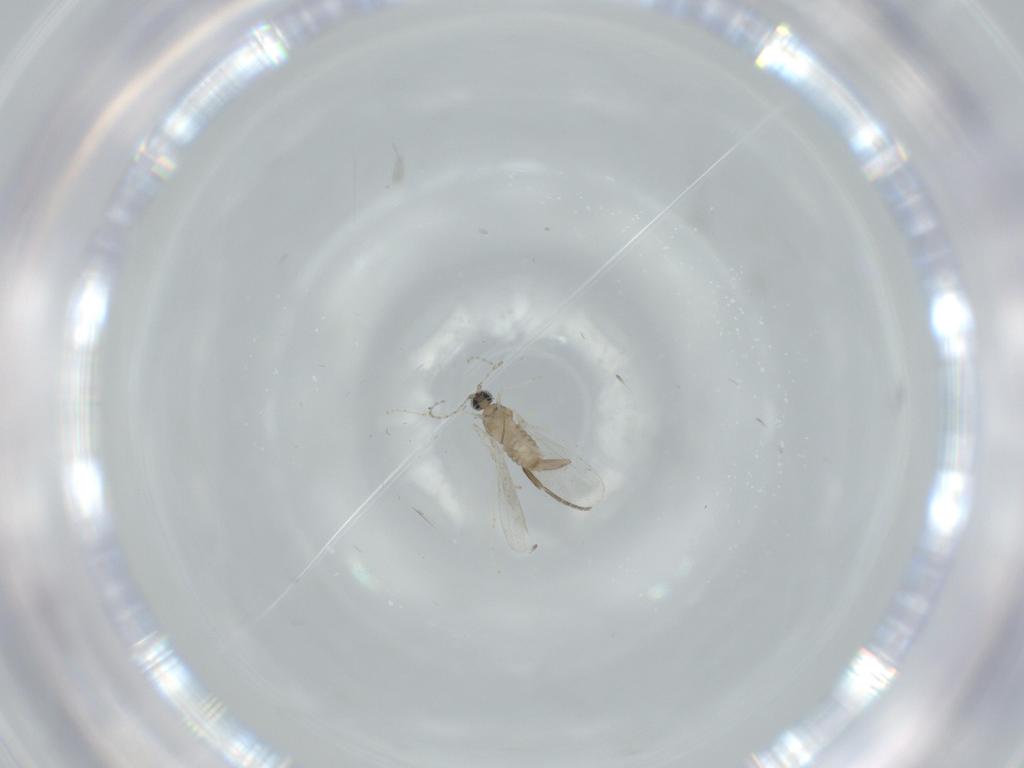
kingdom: Animalia
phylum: Arthropoda
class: Insecta
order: Diptera
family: Cecidomyiidae
